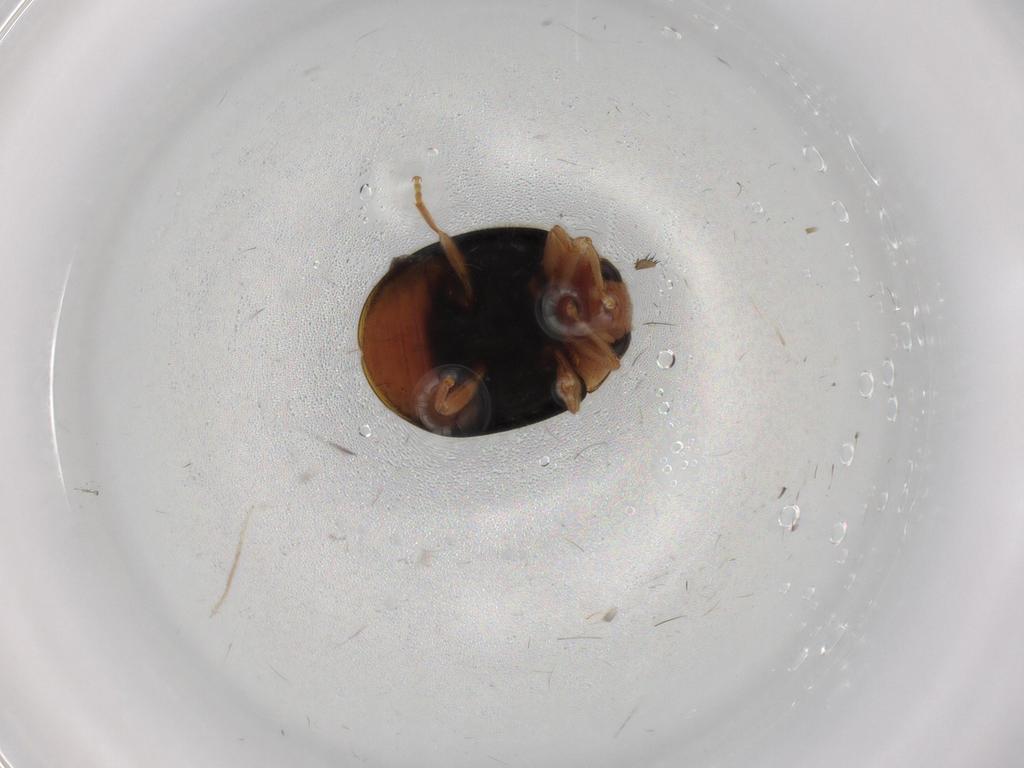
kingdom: Animalia
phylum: Arthropoda
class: Insecta
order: Coleoptera
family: Coccinellidae
